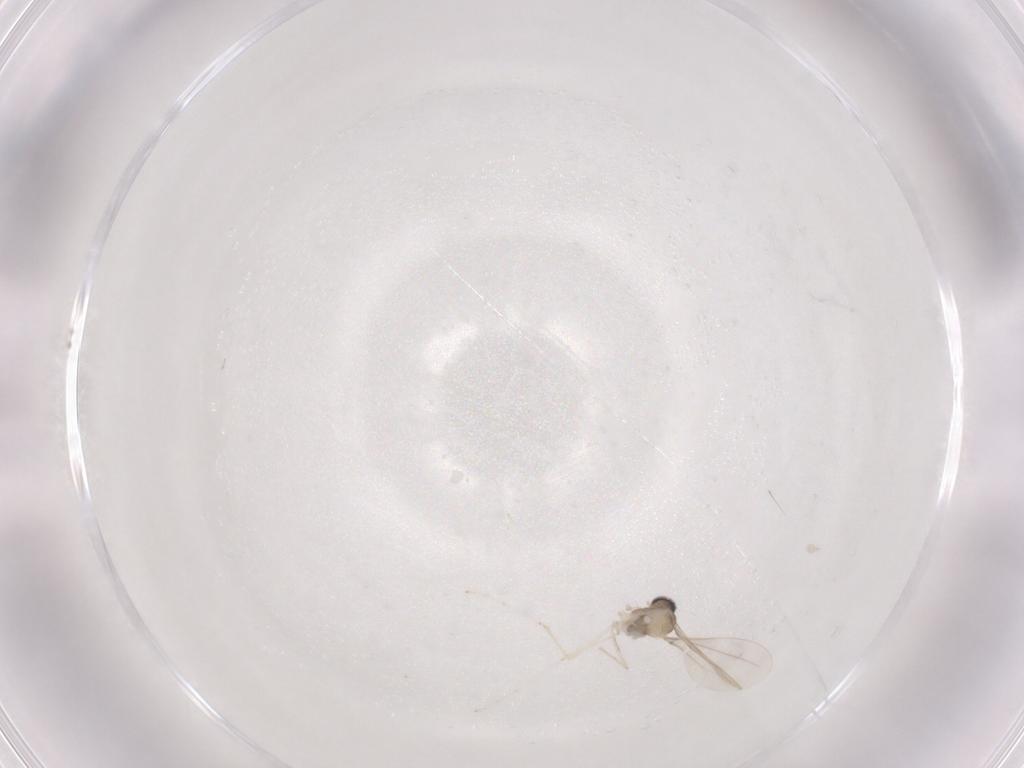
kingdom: Animalia
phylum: Arthropoda
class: Insecta
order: Diptera
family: Cecidomyiidae
